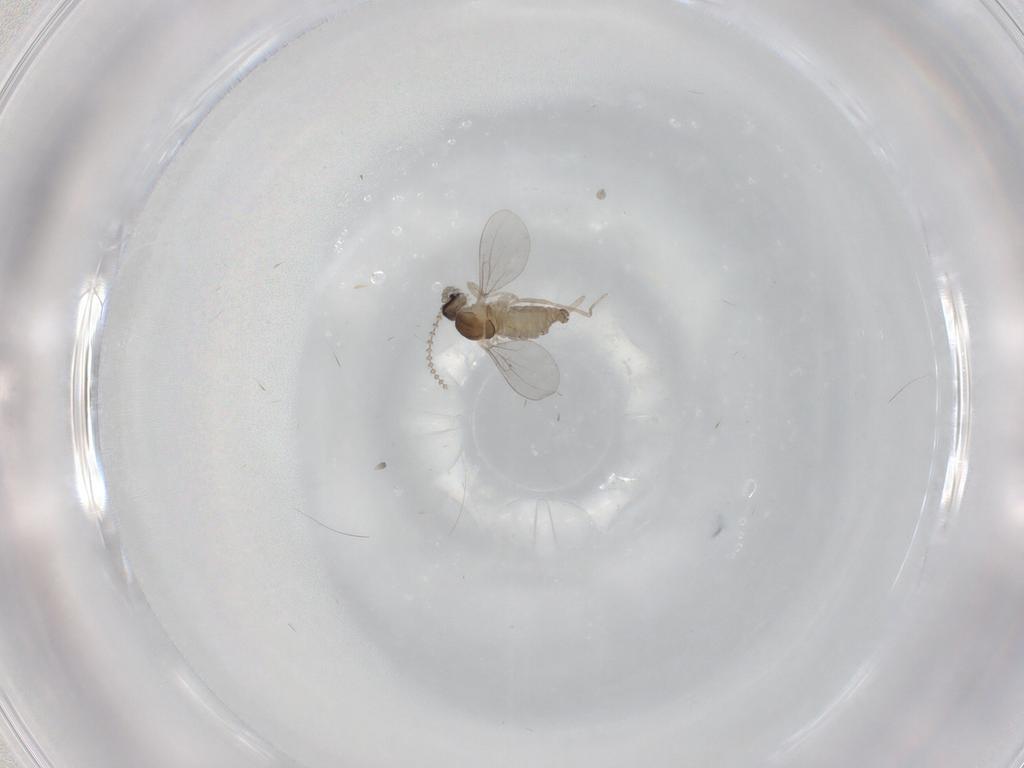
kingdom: Animalia
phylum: Arthropoda
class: Insecta
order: Diptera
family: Cecidomyiidae
